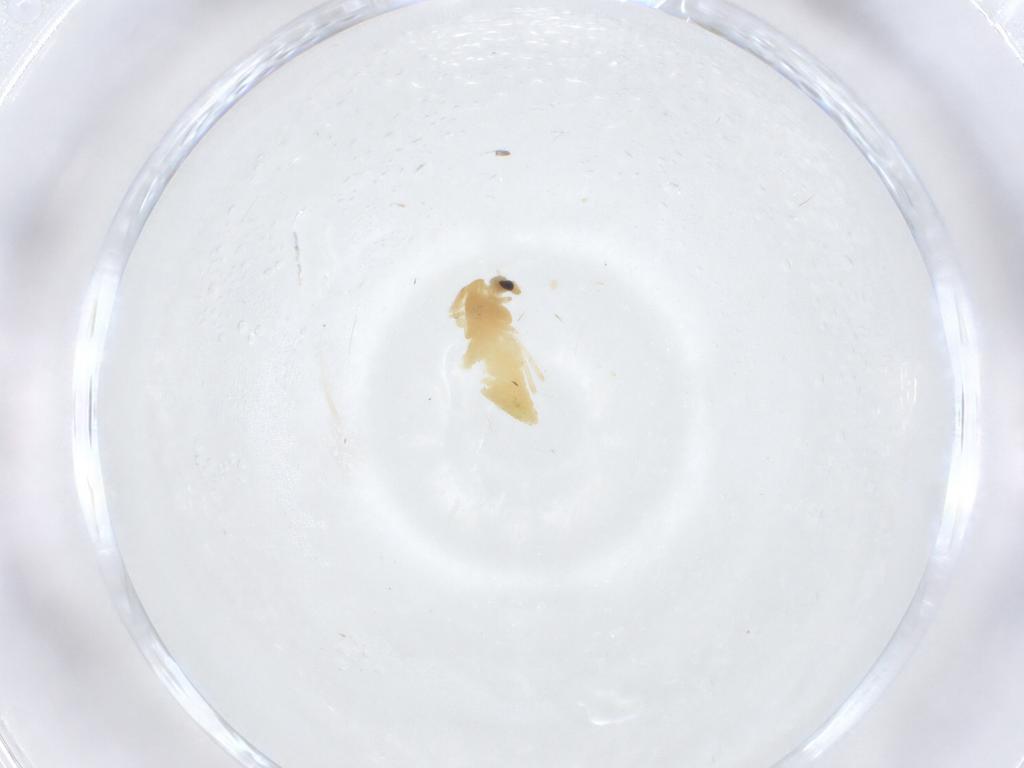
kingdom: Animalia
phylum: Arthropoda
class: Insecta
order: Diptera
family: Chironomidae
